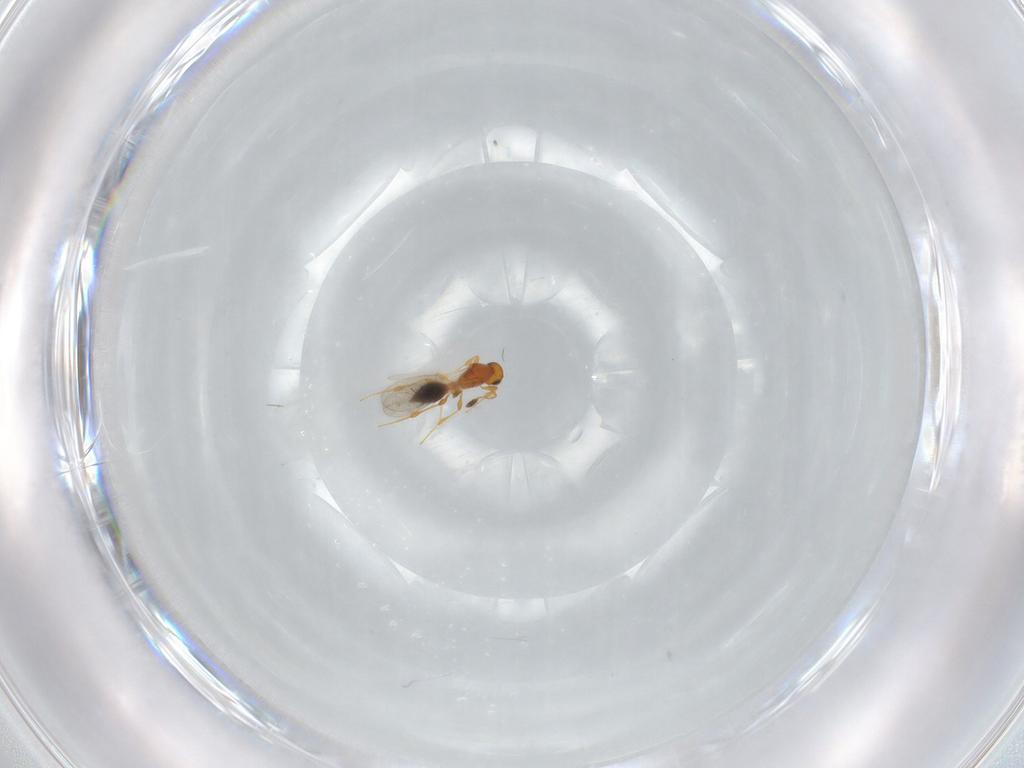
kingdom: Animalia
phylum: Arthropoda
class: Insecta
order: Hymenoptera
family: Platygastridae
